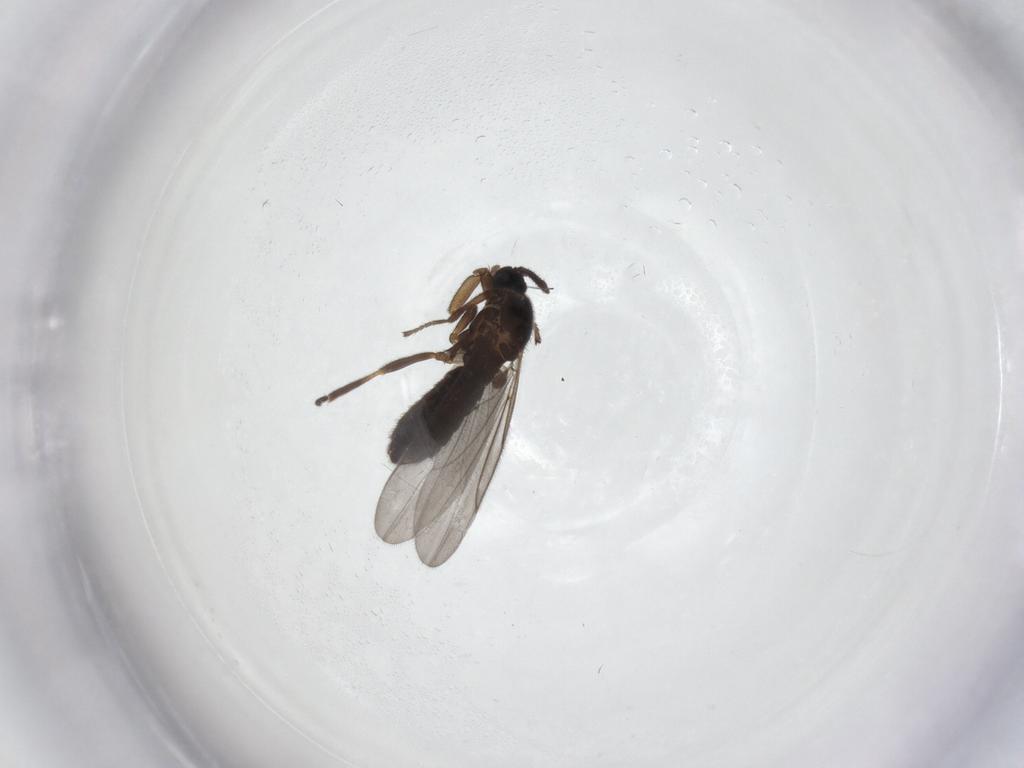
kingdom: Animalia
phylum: Arthropoda
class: Insecta
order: Diptera
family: Scatopsidae
